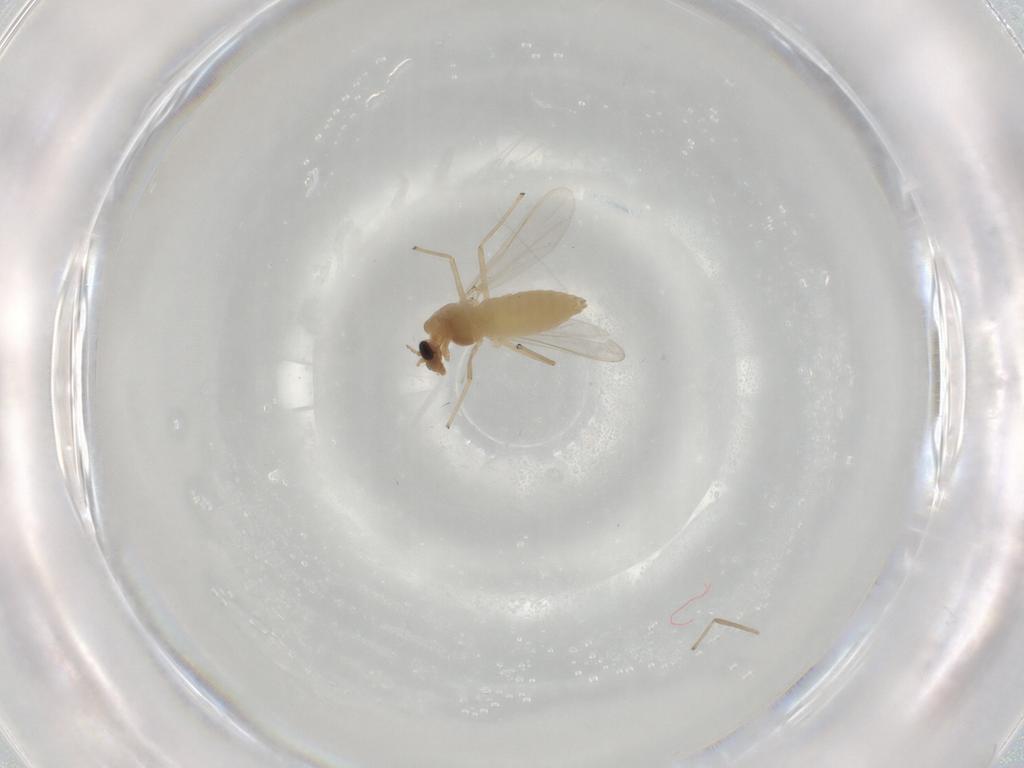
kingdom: Animalia
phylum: Arthropoda
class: Insecta
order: Diptera
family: Chironomidae
